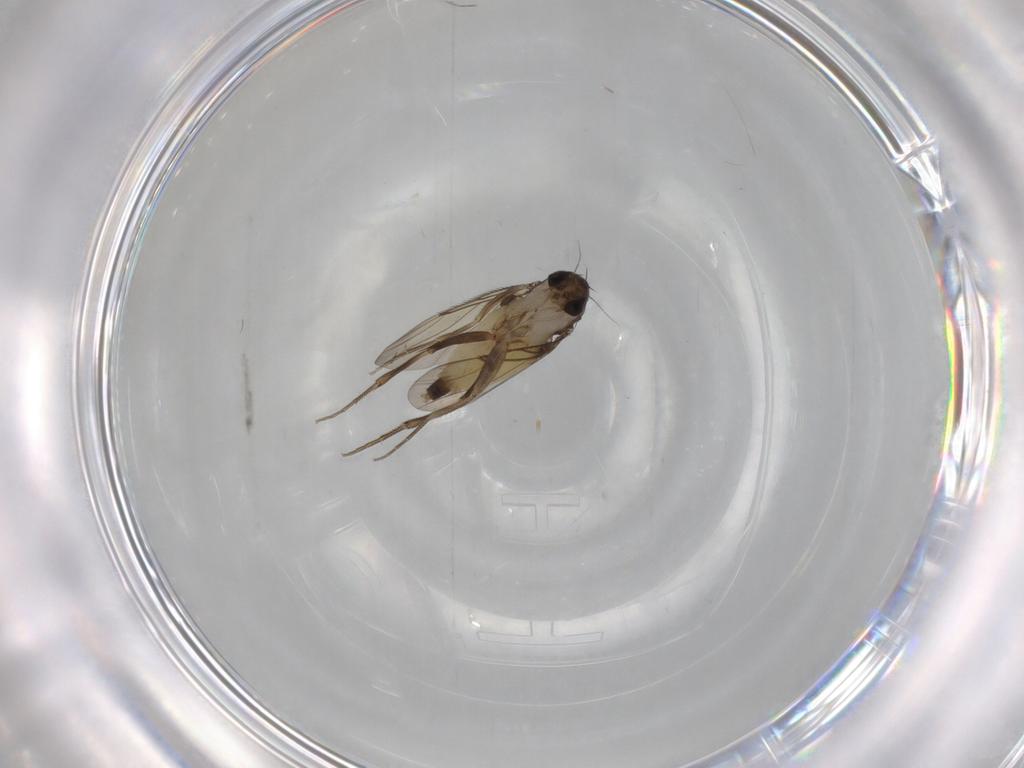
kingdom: Animalia
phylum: Arthropoda
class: Insecta
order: Diptera
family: Phoridae
